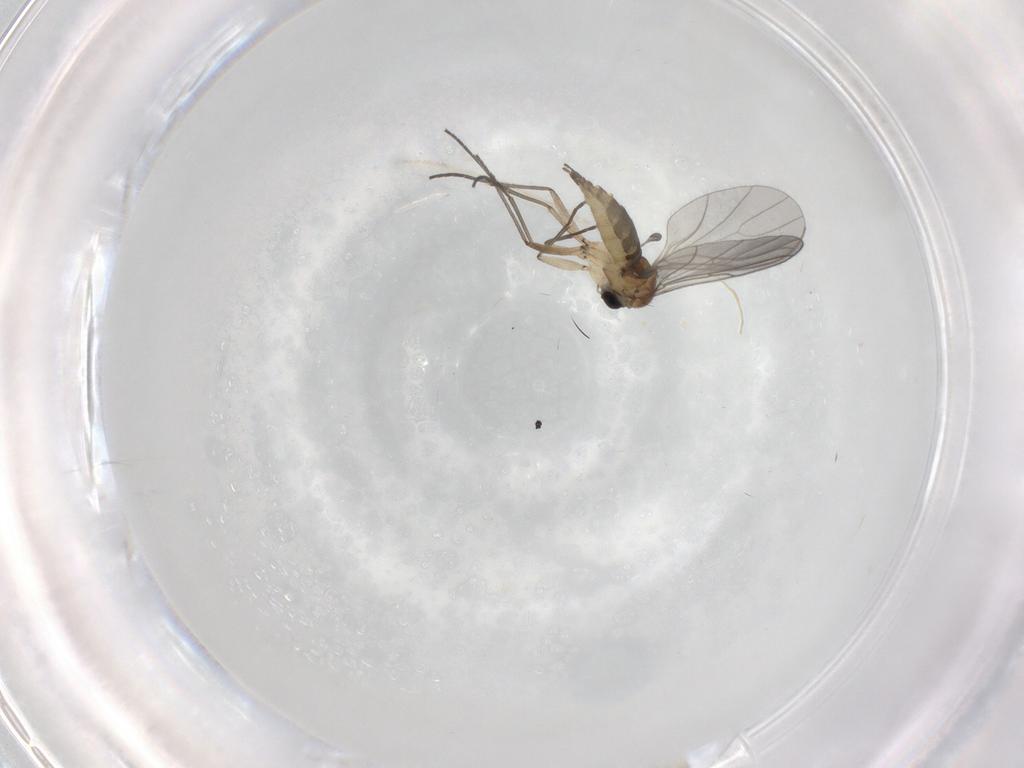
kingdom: Animalia
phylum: Arthropoda
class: Insecta
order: Diptera
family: Sciaridae
